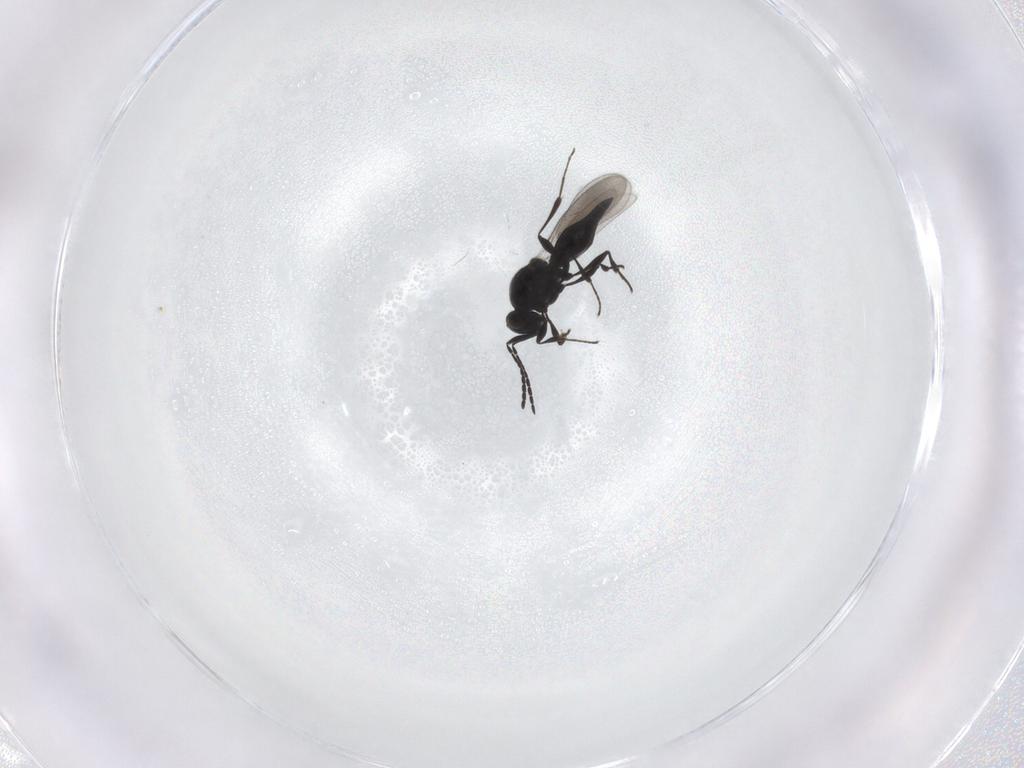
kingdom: Animalia
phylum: Arthropoda
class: Insecta
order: Diptera
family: Mythicomyiidae
